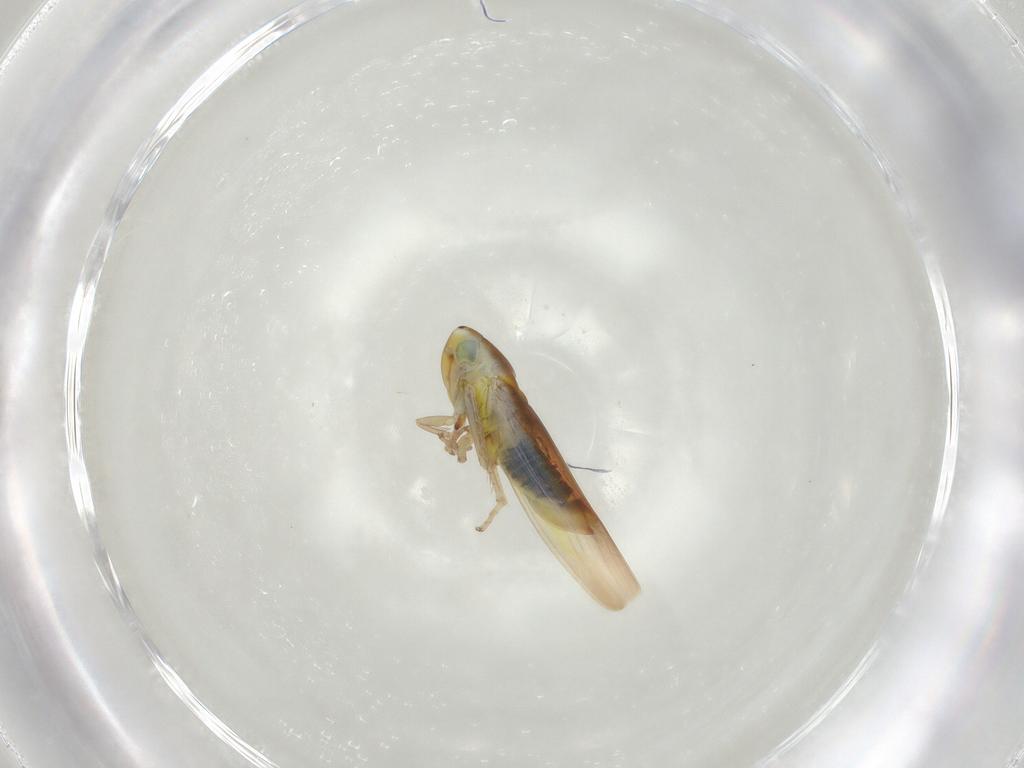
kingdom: Animalia
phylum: Arthropoda
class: Insecta
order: Hemiptera
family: Cicadellidae
